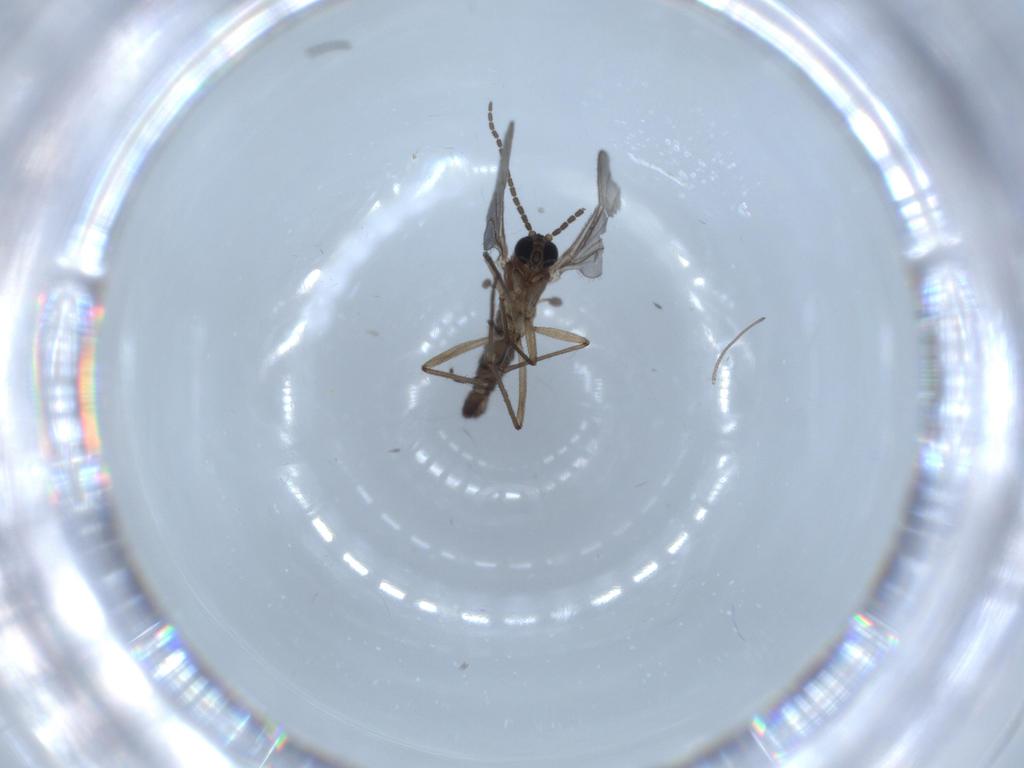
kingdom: Animalia
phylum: Arthropoda
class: Insecta
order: Diptera
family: Chironomidae
